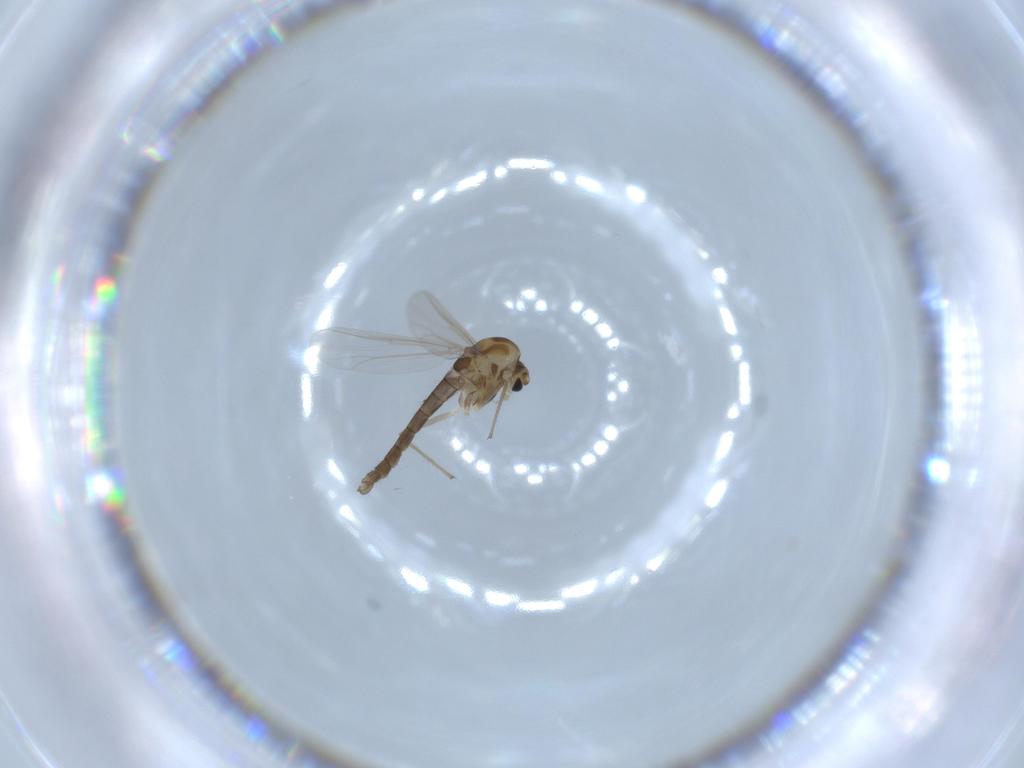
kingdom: Animalia
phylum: Arthropoda
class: Insecta
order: Diptera
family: Chironomidae
